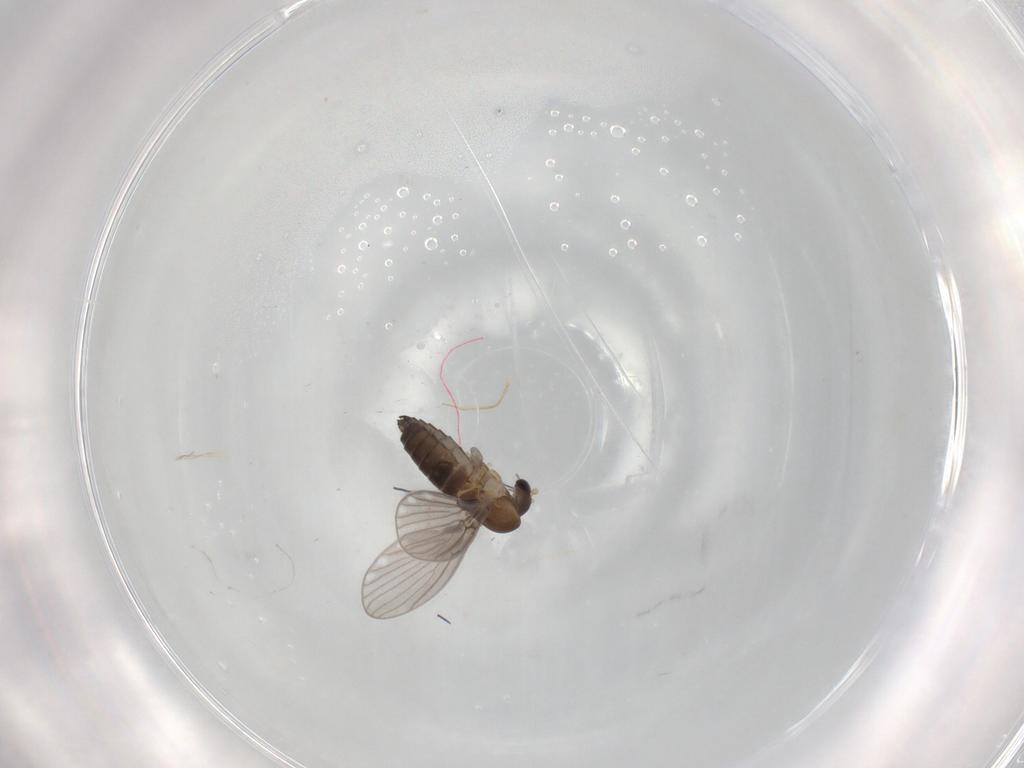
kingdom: Animalia
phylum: Arthropoda
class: Insecta
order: Diptera
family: Psychodidae
